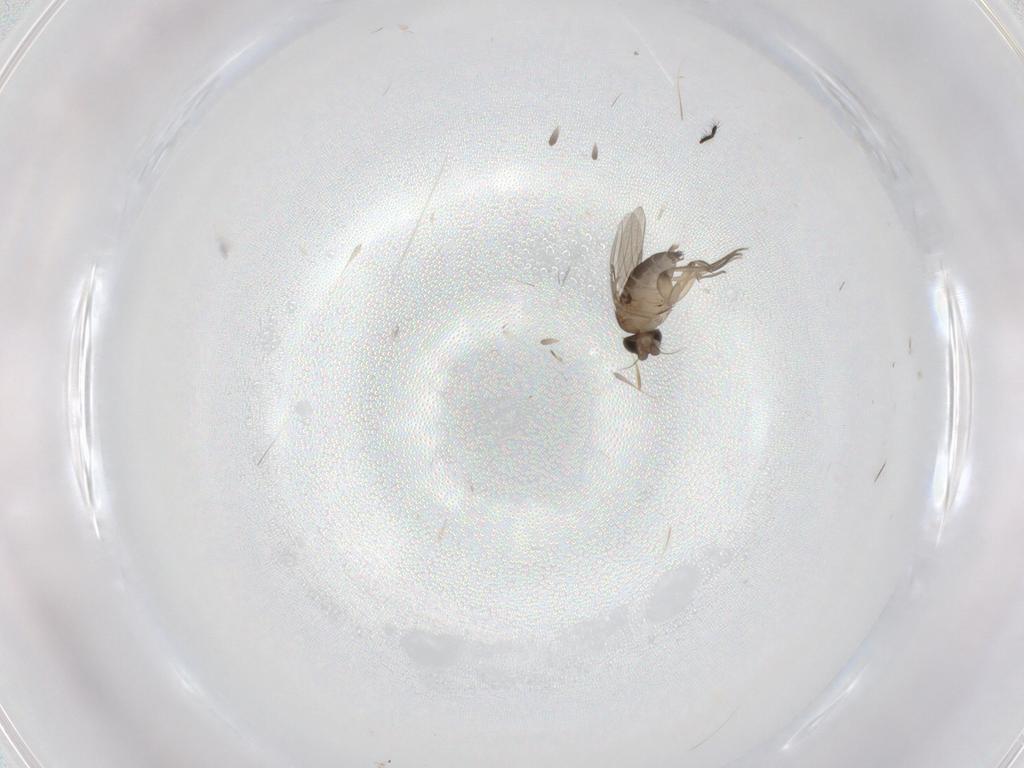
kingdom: Animalia
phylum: Arthropoda
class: Insecta
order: Diptera
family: Phoridae
